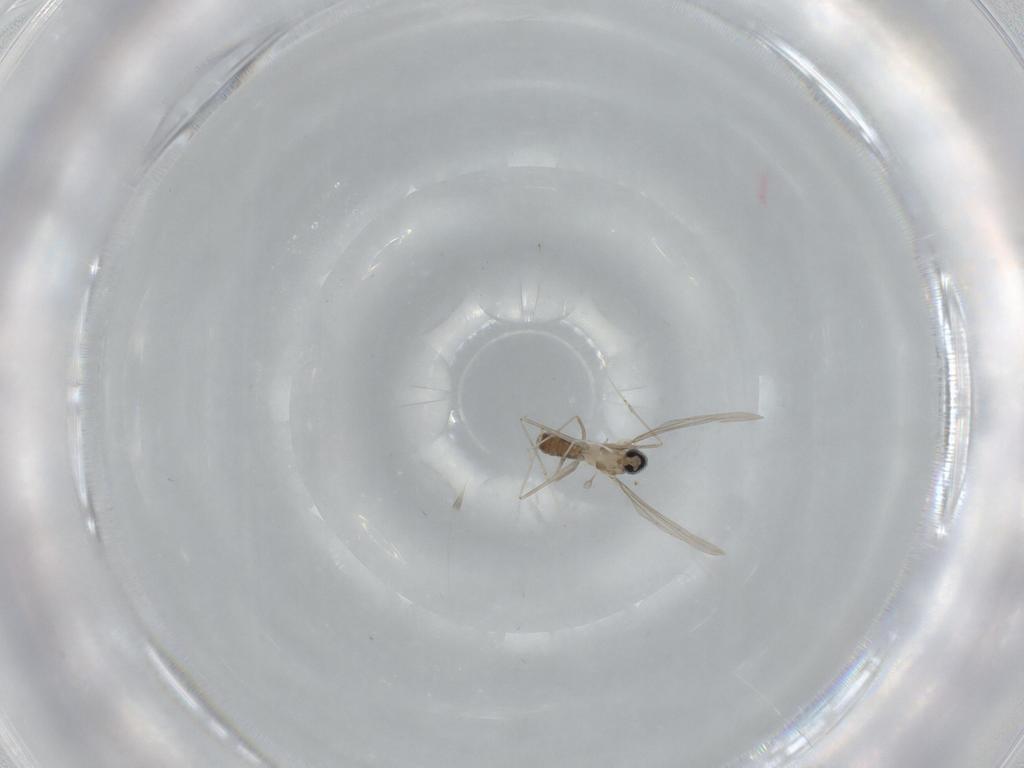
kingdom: Animalia
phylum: Arthropoda
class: Insecta
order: Diptera
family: Cecidomyiidae
